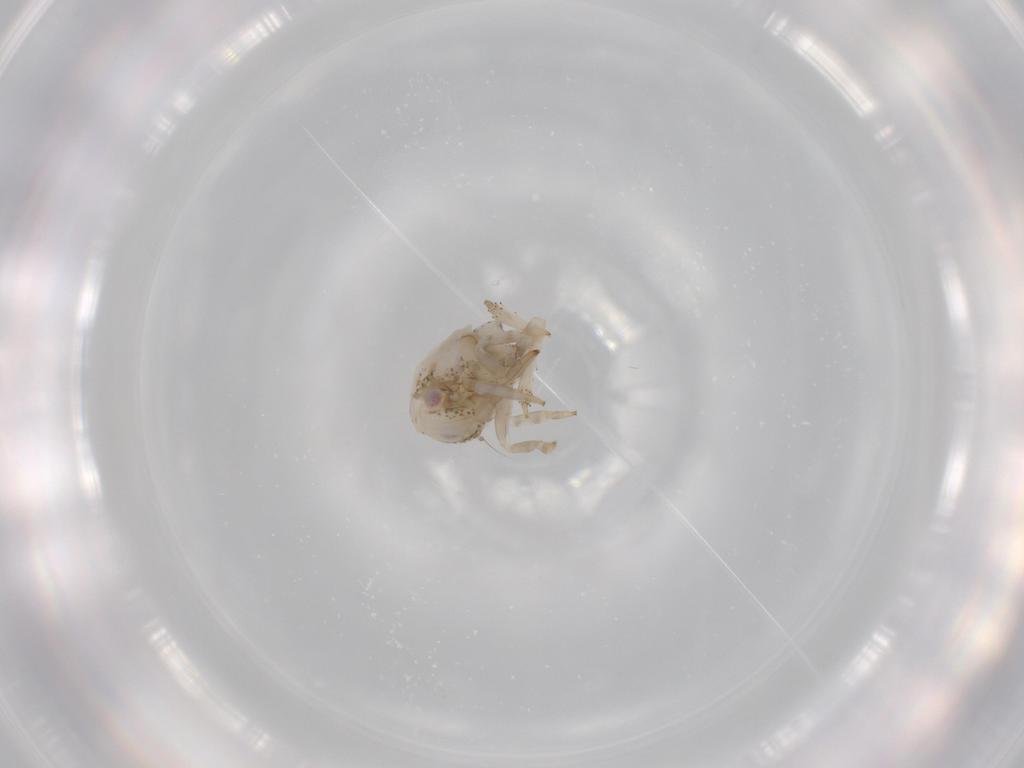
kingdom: Animalia
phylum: Arthropoda
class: Insecta
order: Hemiptera
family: Acanaloniidae
